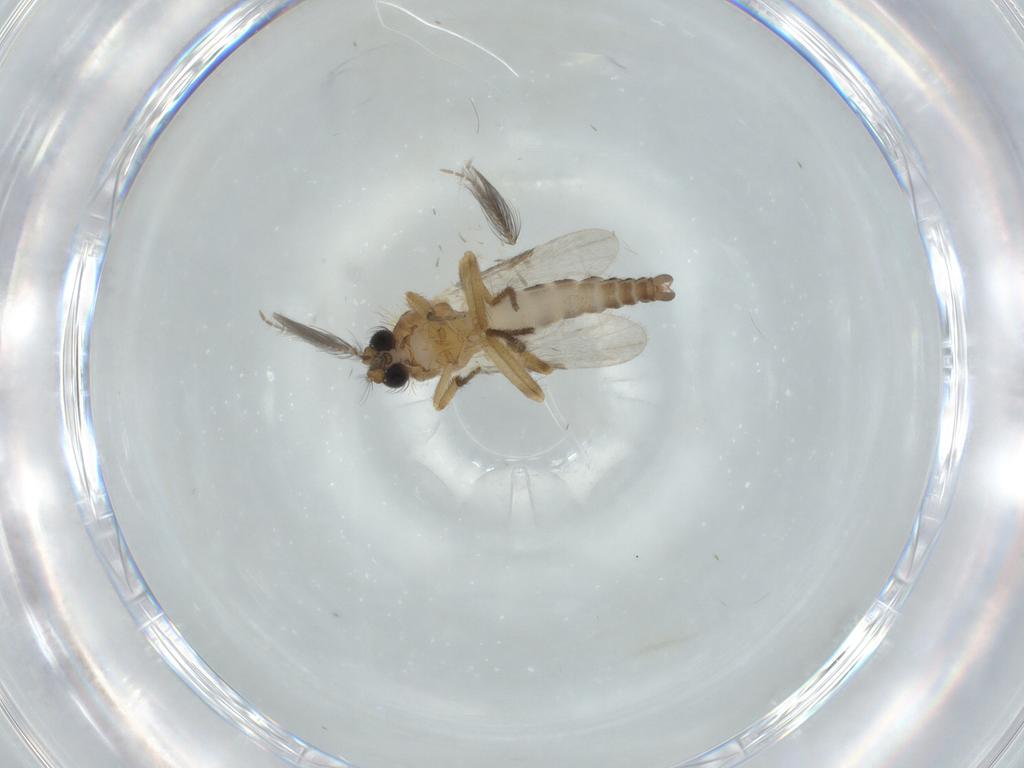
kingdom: Animalia
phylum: Arthropoda
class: Insecta
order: Diptera
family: Ceratopogonidae
